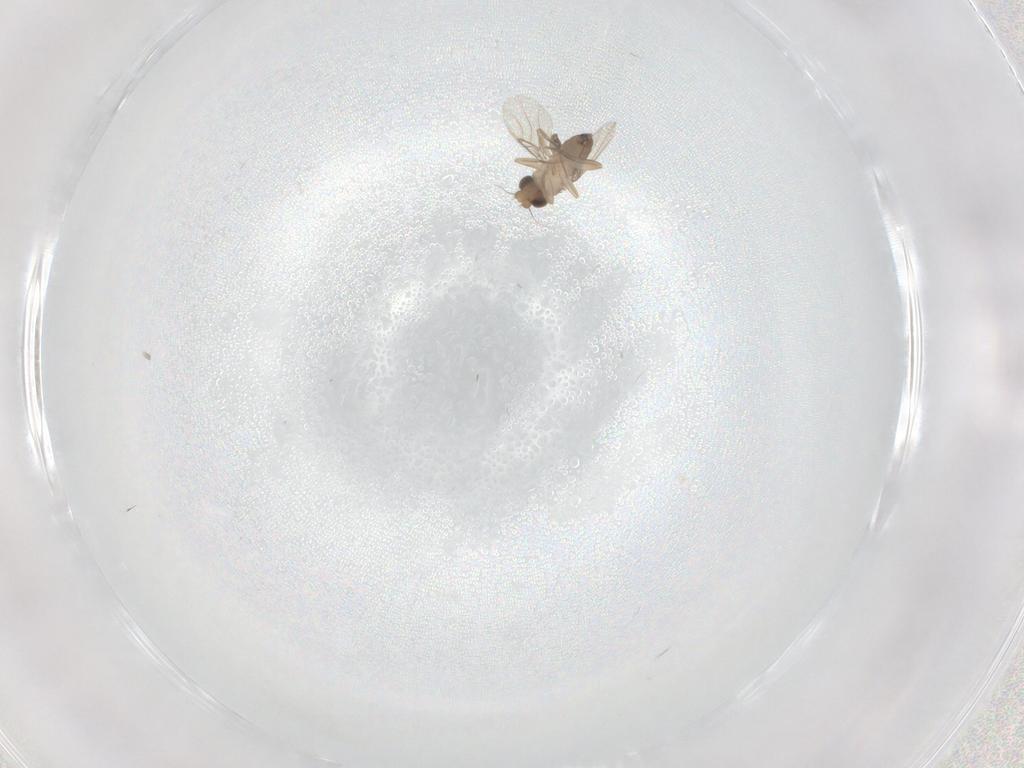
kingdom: Animalia
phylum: Arthropoda
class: Insecta
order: Diptera
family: Phoridae
